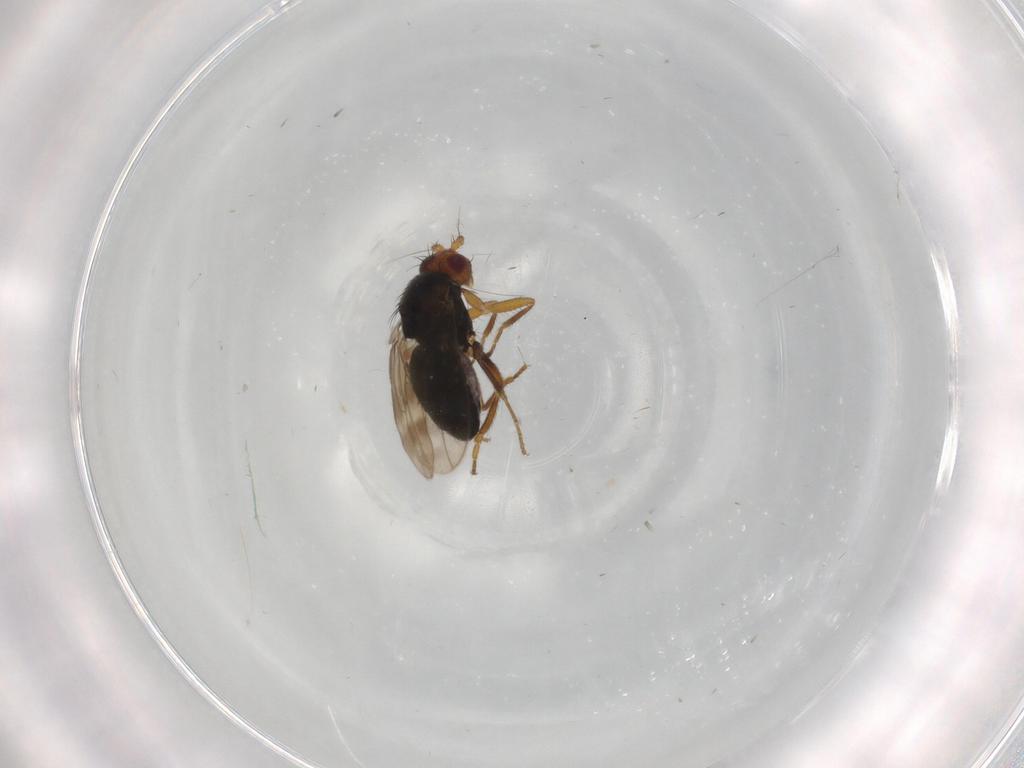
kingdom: Animalia
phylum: Arthropoda
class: Insecta
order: Diptera
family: Sphaeroceridae
